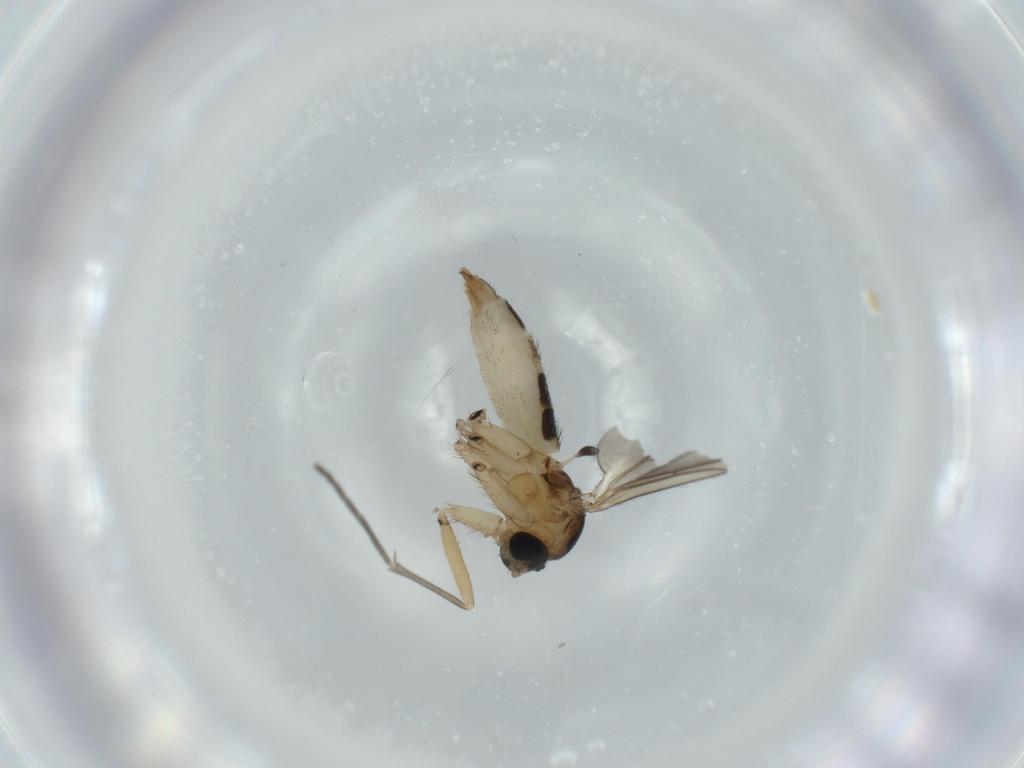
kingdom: Animalia
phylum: Arthropoda
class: Insecta
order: Diptera
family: Sciaridae
